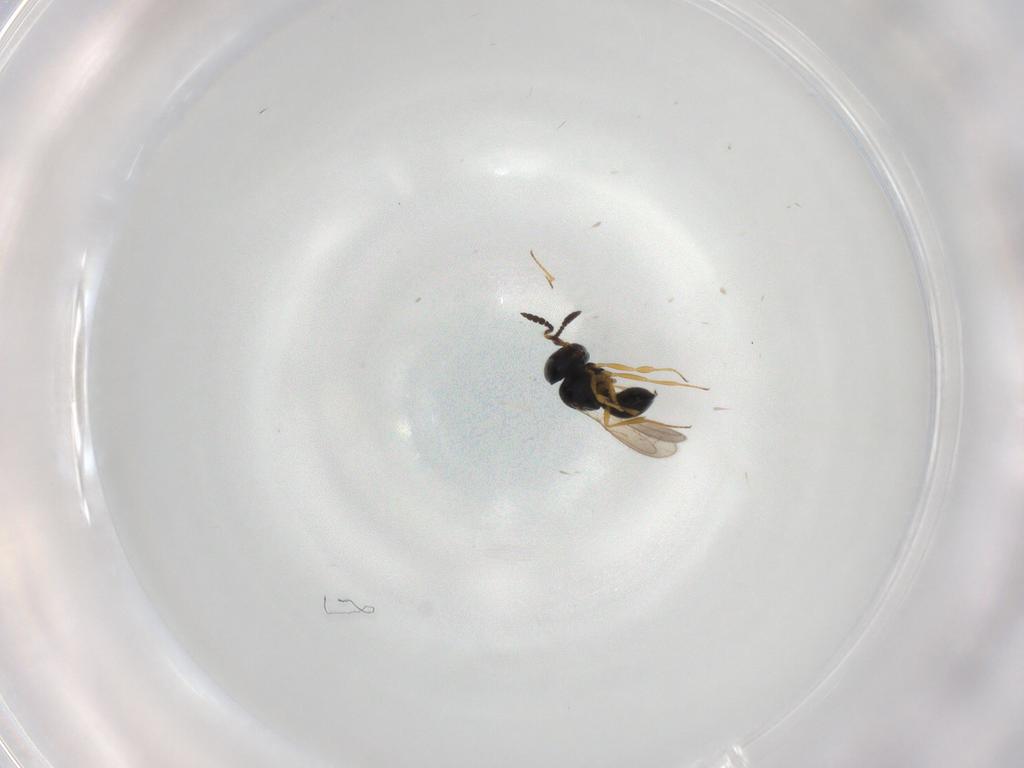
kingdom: Animalia
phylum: Arthropoda
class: Insecta
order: Hymenoptera
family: Scelionidae
